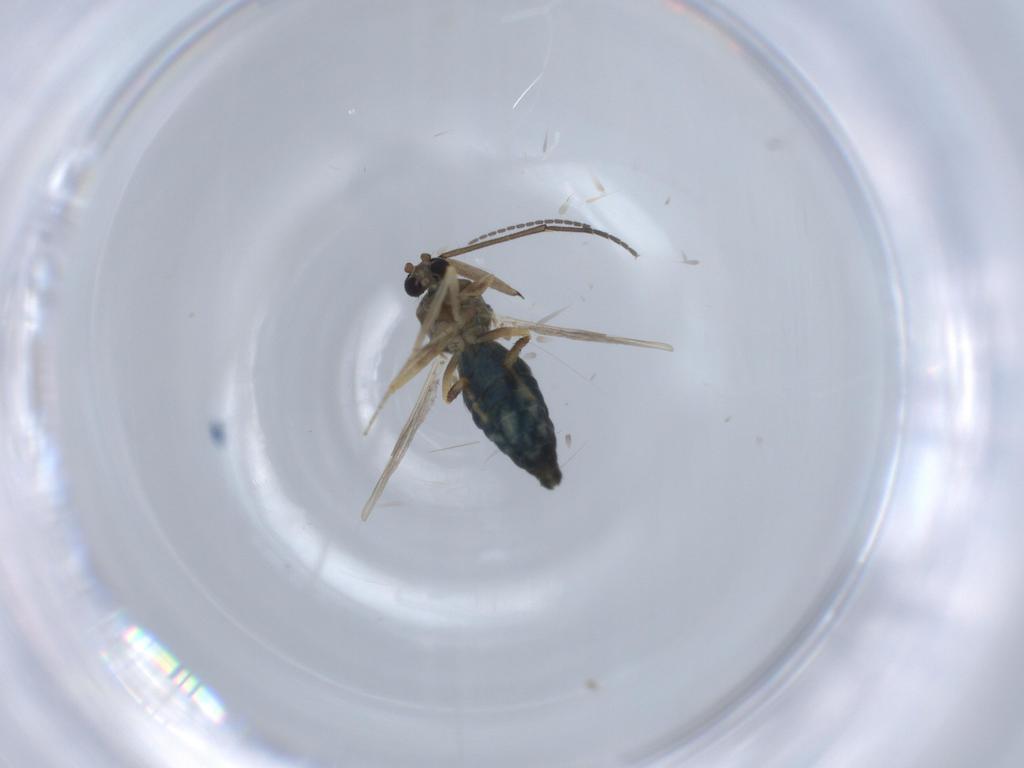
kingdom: Animalia
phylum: Arthropoda
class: Insecta
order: Diptera
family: Ceratopogonidae
